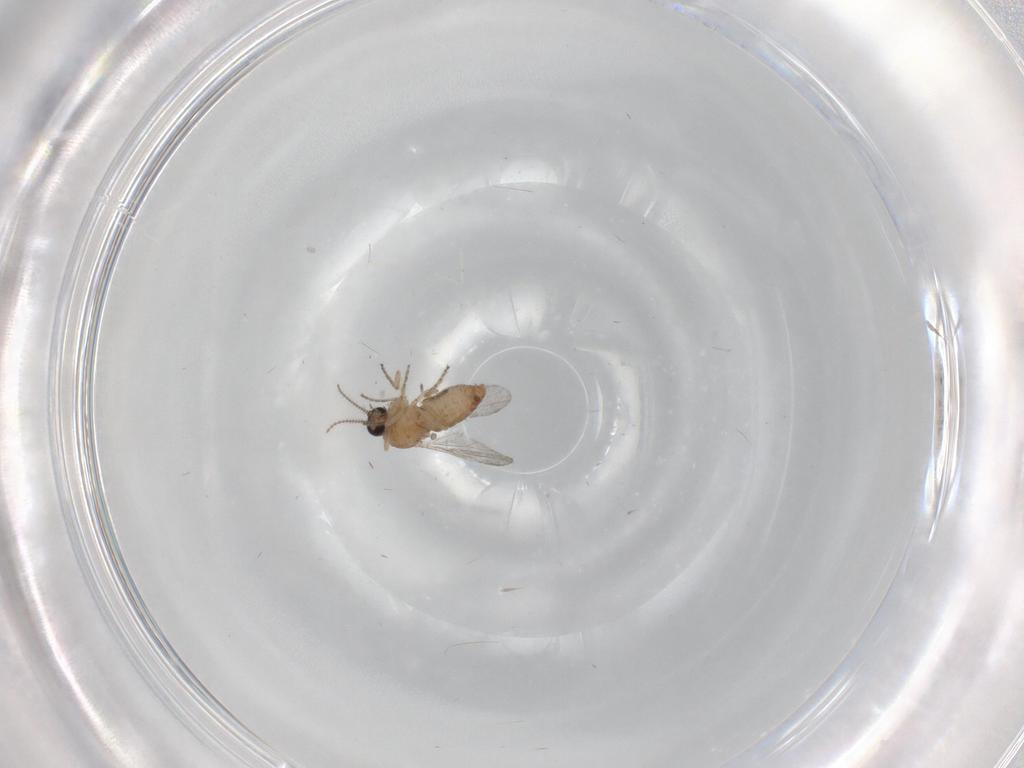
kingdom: Animalia
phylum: Arthropoda
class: Insecta
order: Diptera
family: Ceratopogonidae
